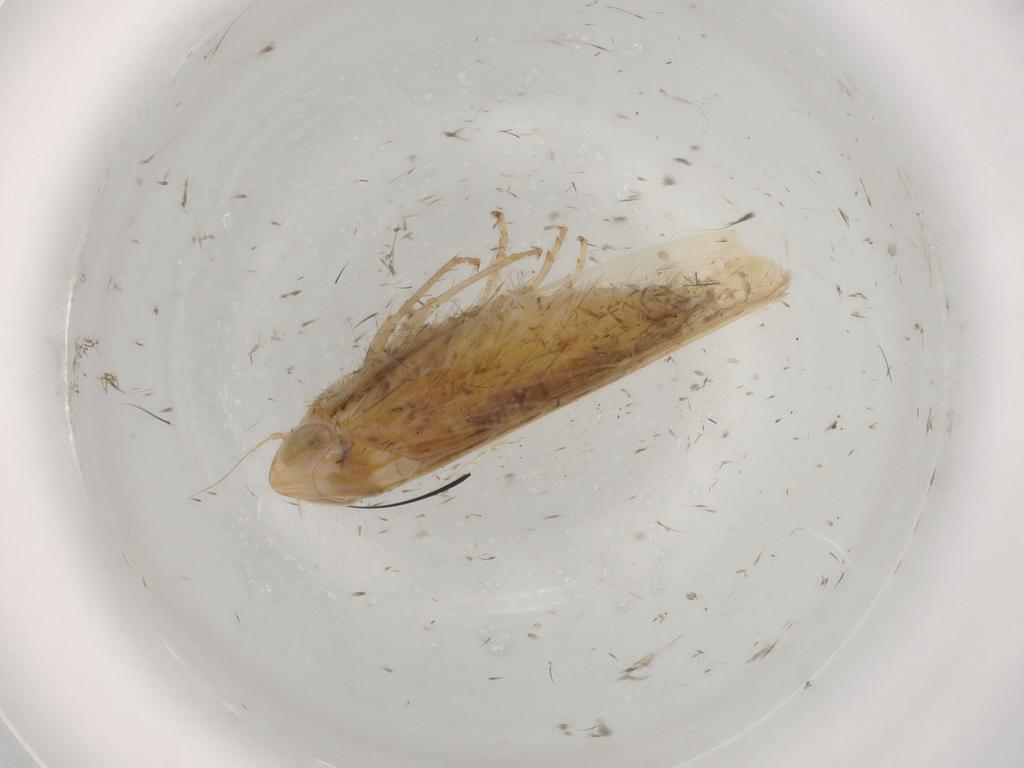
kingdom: Animalia
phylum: Arthropoda
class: Insecta
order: Hemiptera
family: Cicadellidae
